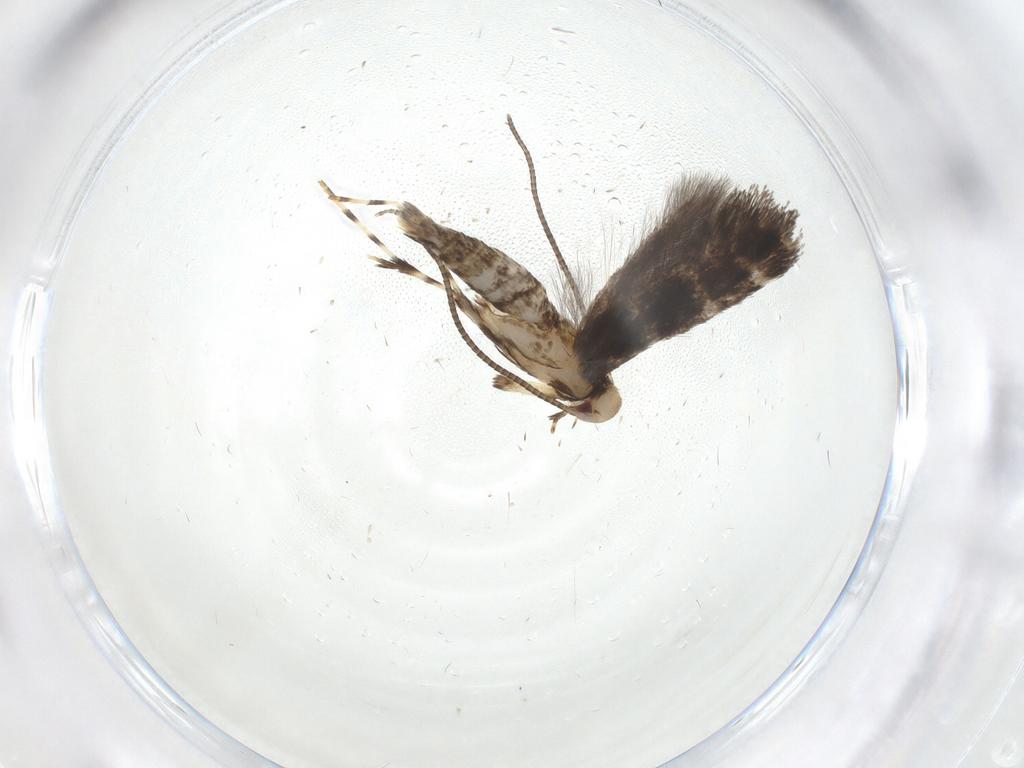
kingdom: Animalia
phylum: Arthropoda
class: Insecta
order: Lepidoptera
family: Gracillariidae
